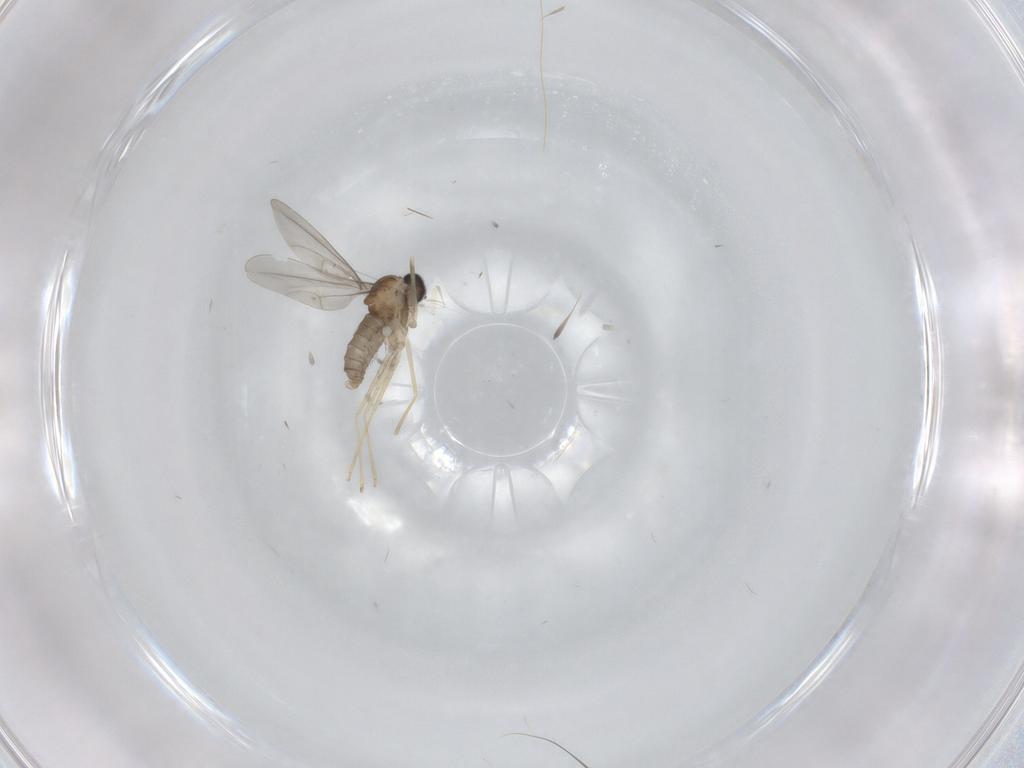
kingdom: Animalia
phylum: Arthropoda
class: Insecta
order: Diptera
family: Cecidomyiidae
